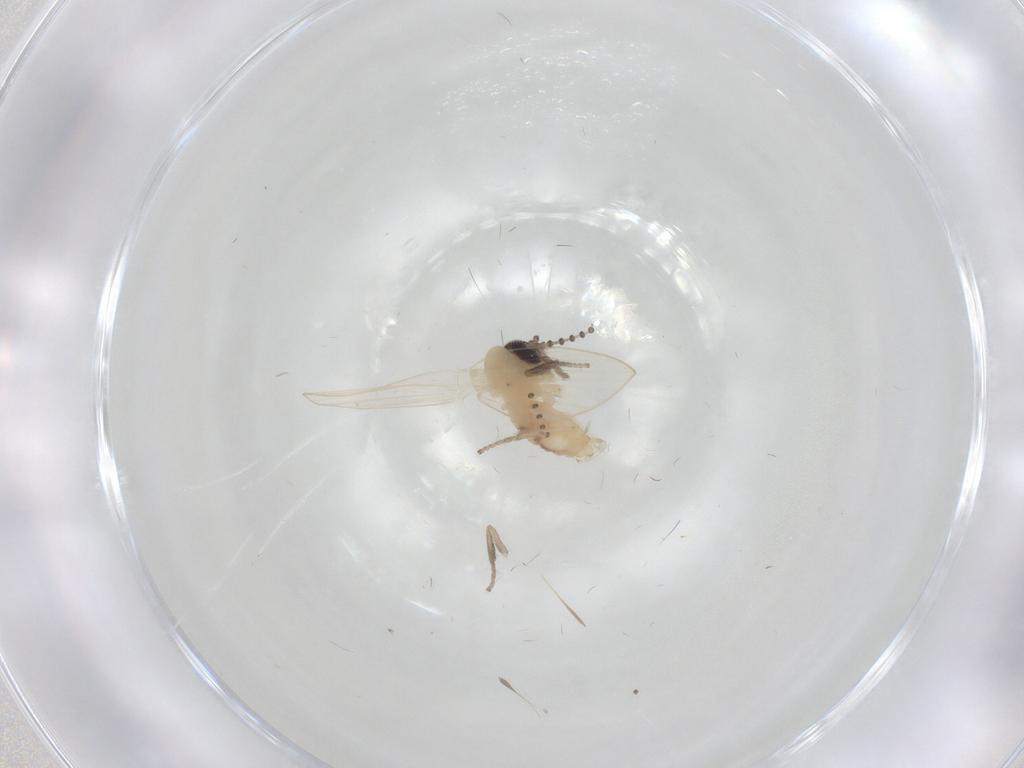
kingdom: Animalia
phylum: Arthropoda
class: Insecta
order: Diptera
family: Psychodidae
